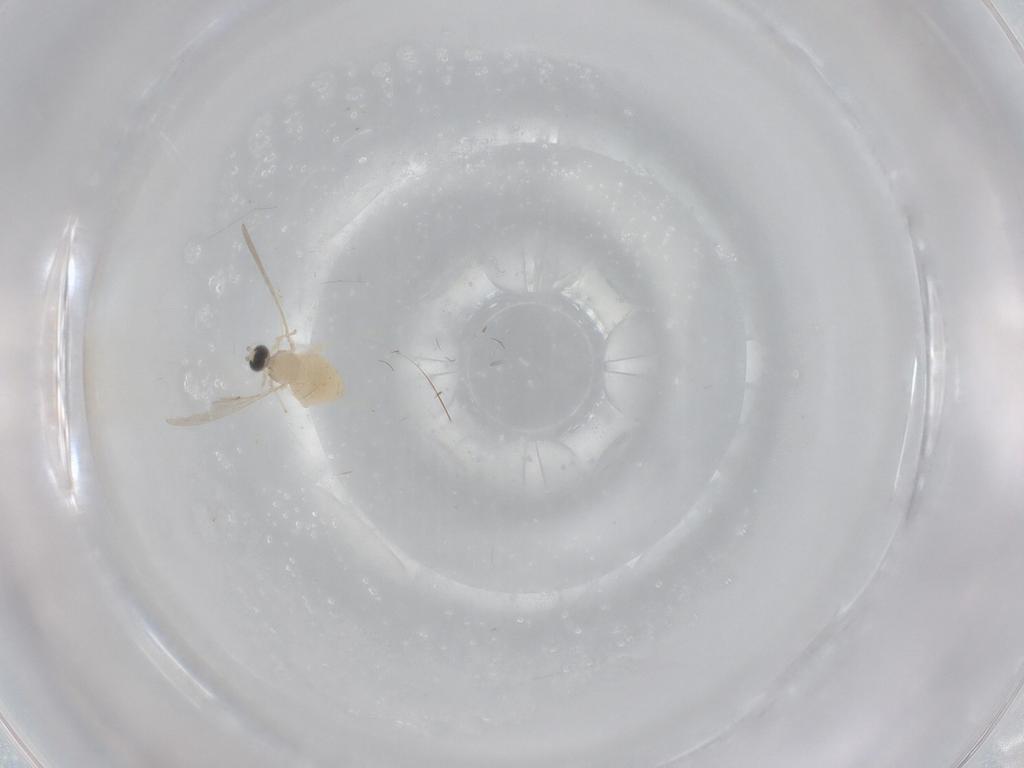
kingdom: Animalia
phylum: Arthropoda
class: Insecta
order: Diptera
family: Cecidomyiidae
